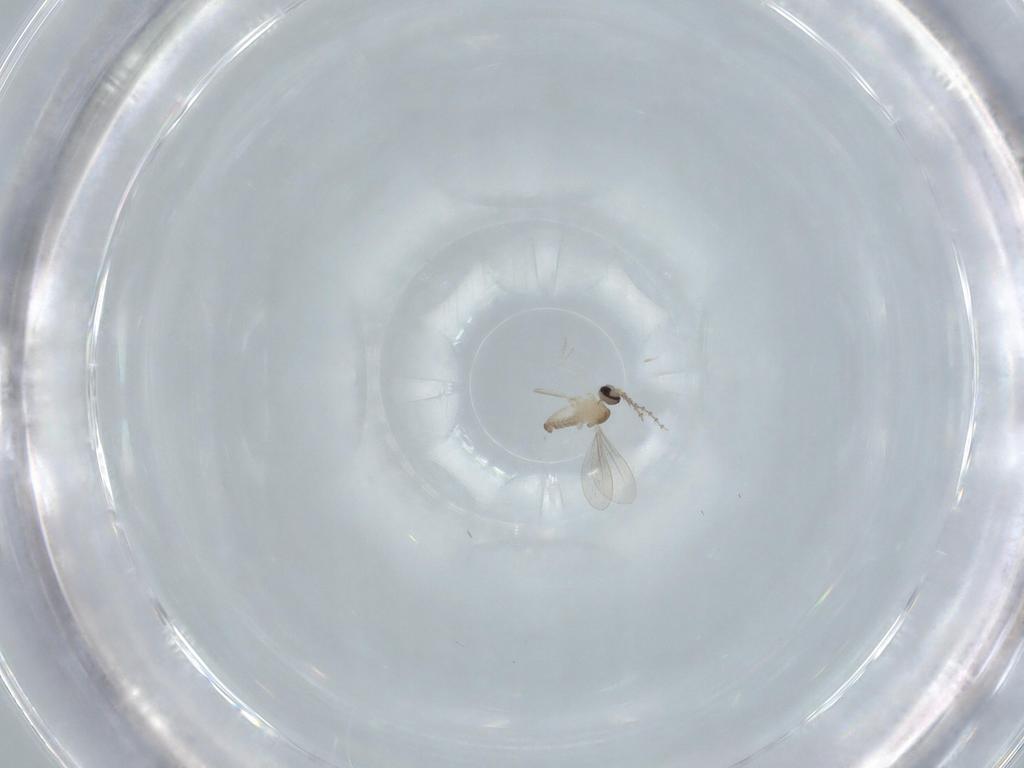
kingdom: Animalia
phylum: Arthropoda
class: Insecta
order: Diptera
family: Cecidomyiidae
